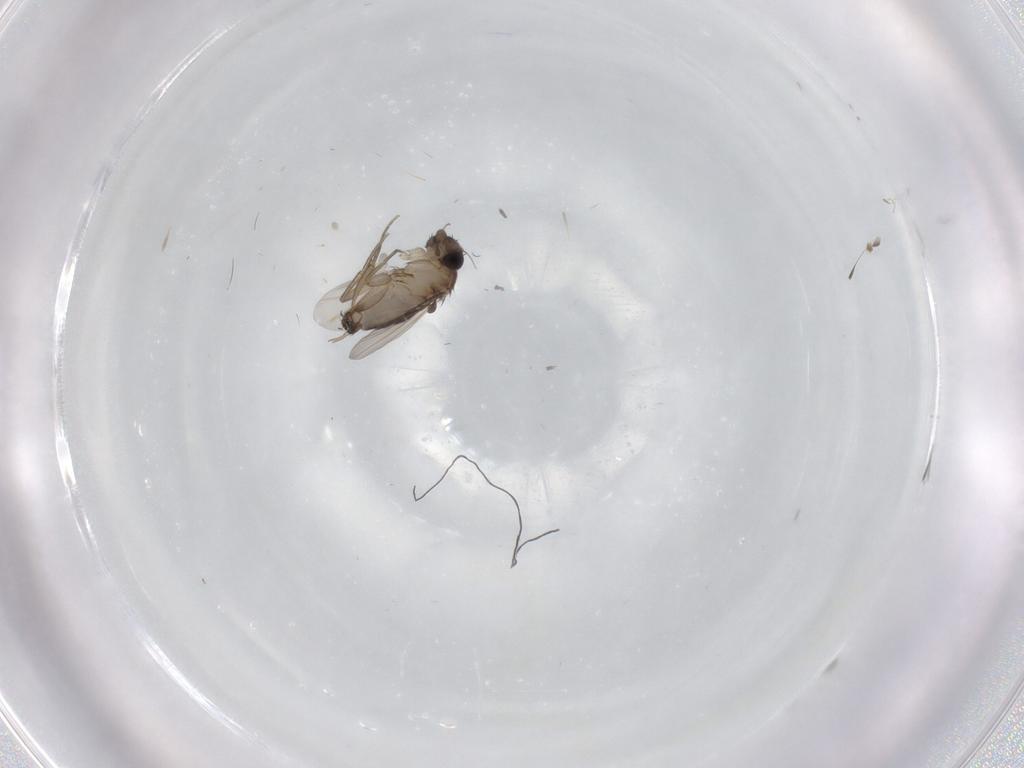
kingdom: Animalia
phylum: Arthropoda
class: Insecta
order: Diptera
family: Phoridae
